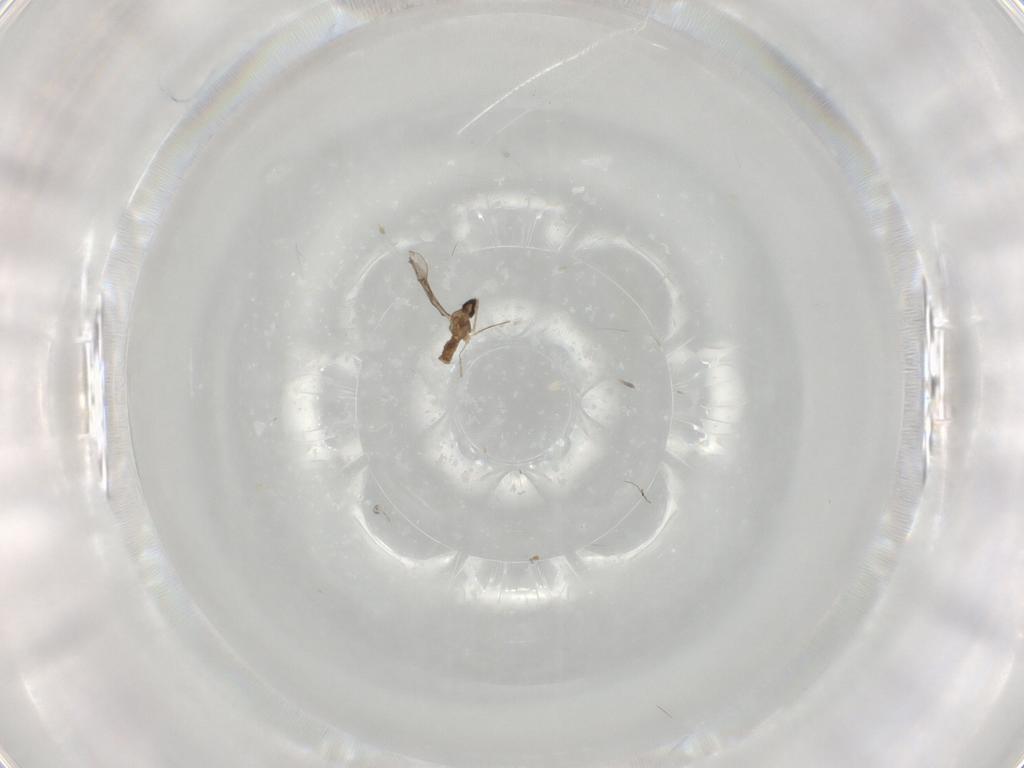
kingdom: Animalia
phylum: Arthropoda
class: Insecta
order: Diptera
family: Cecidomyiidae
